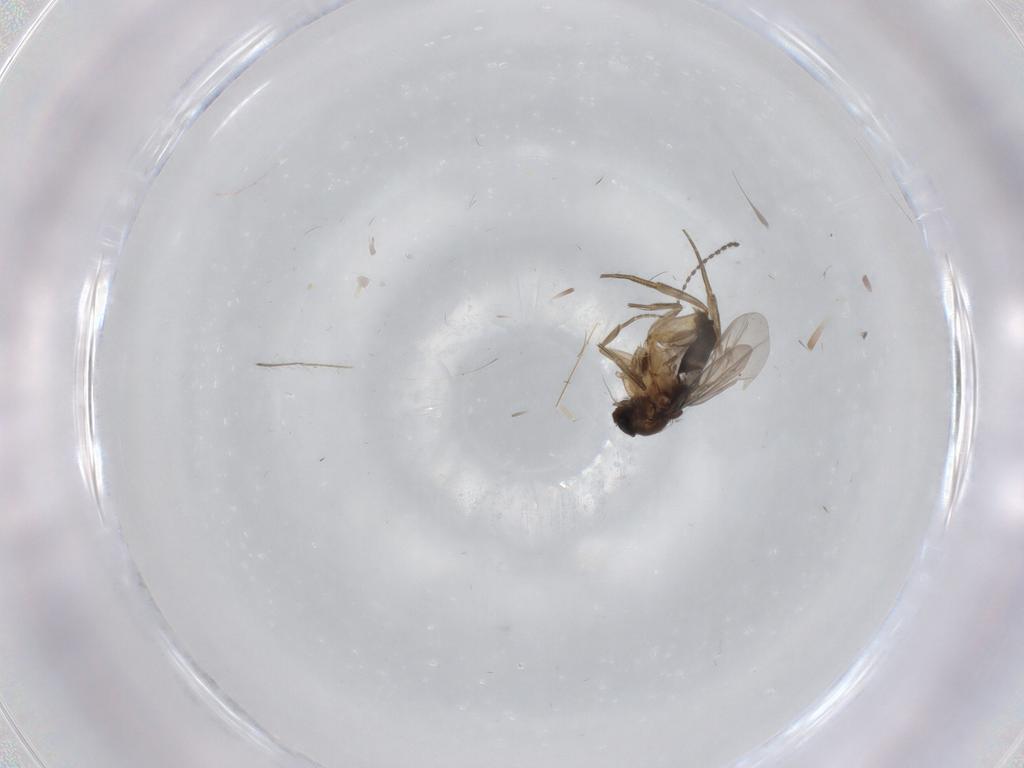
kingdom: Animalia
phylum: Arthropoda
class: Insecta
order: Diptera
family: Phoridae
